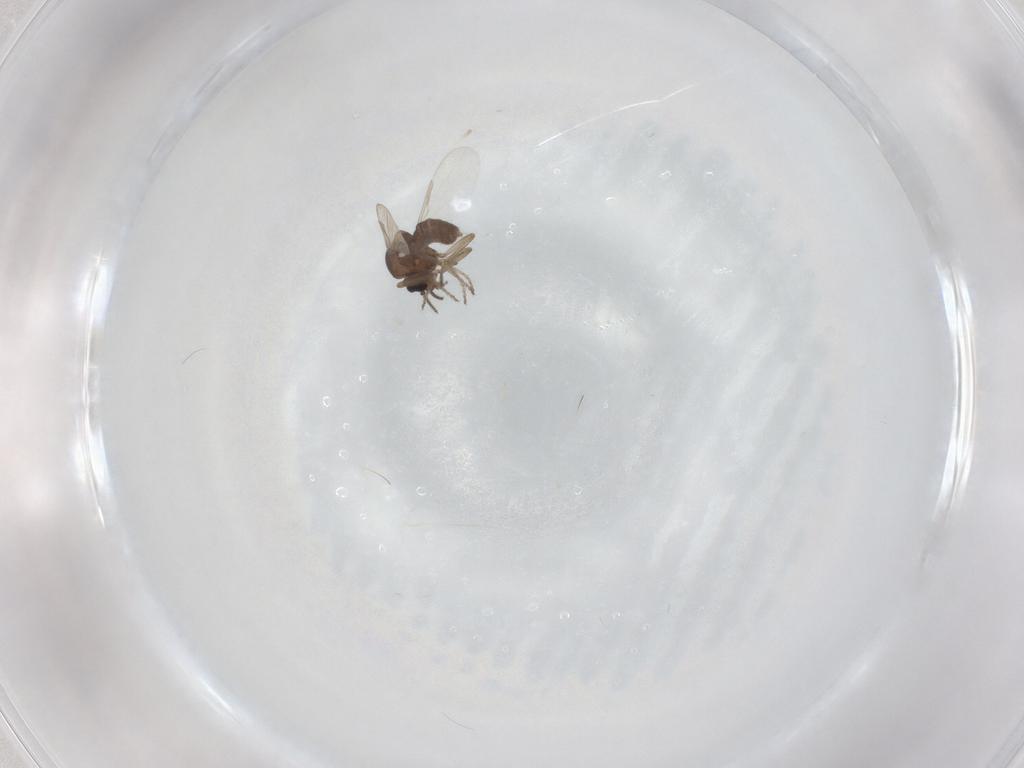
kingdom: Animalia
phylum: Arthropoda
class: Insecta
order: Diptera
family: Ceratopogonidae
